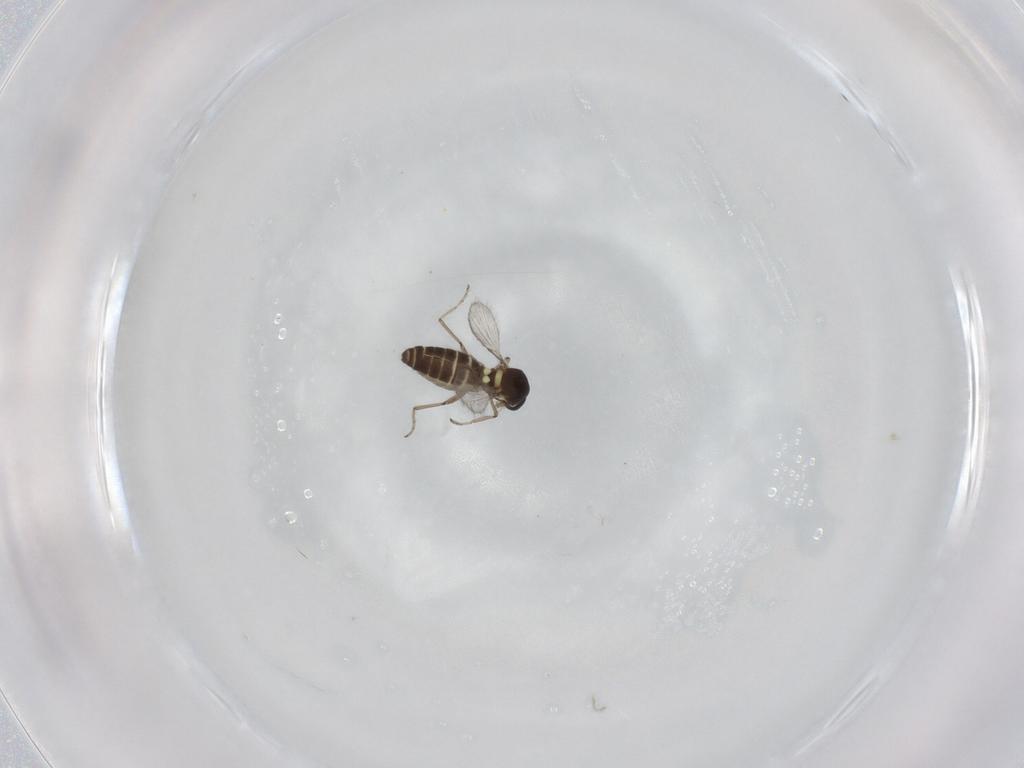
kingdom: Animalia
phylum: Arthropoda
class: Insecta
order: Diptera
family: Ceratopogonidae
